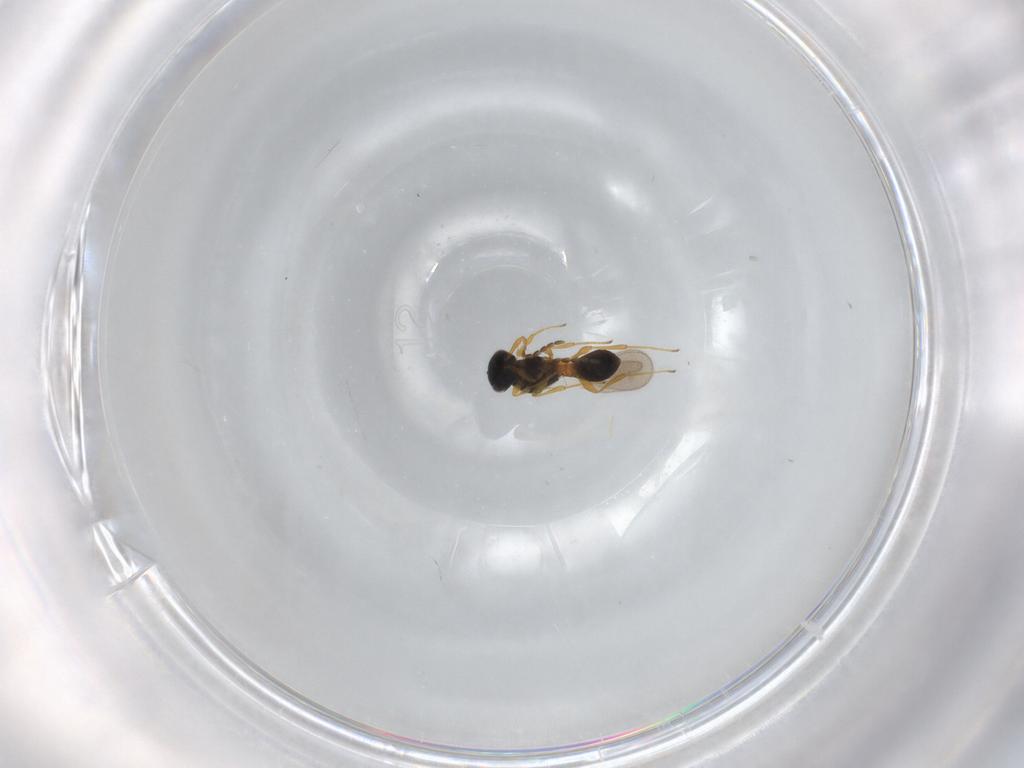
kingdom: Animalia
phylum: Arthropoda
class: Insecta
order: Hymenoptera
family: Platygastridae
